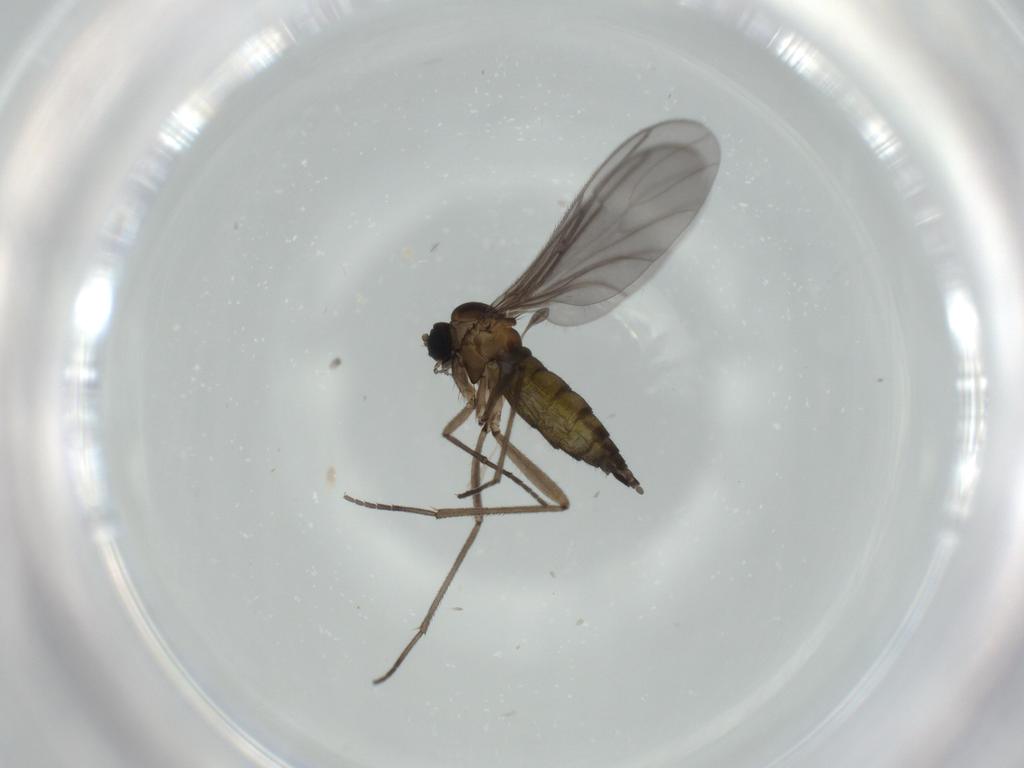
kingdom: Animalia
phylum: Arthropoda
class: Insecta
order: Diptera
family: Sciaridae
